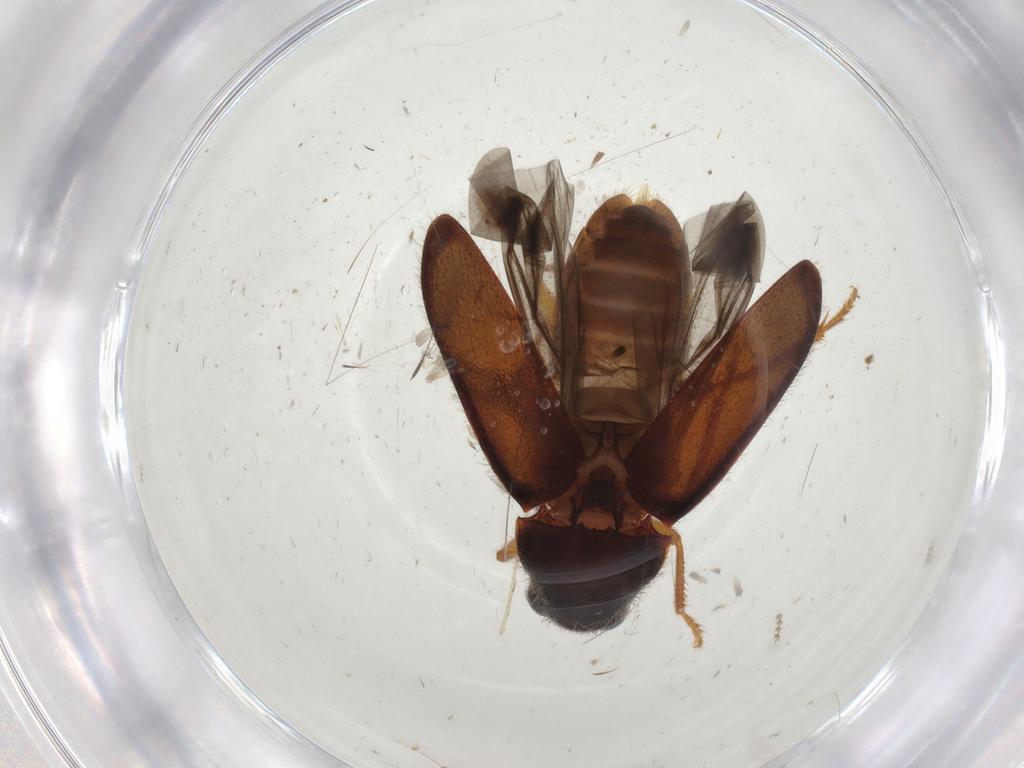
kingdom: Animalia
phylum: Arthropoda
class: Insecta
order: Coleoptera
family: Ptilodactylidae
